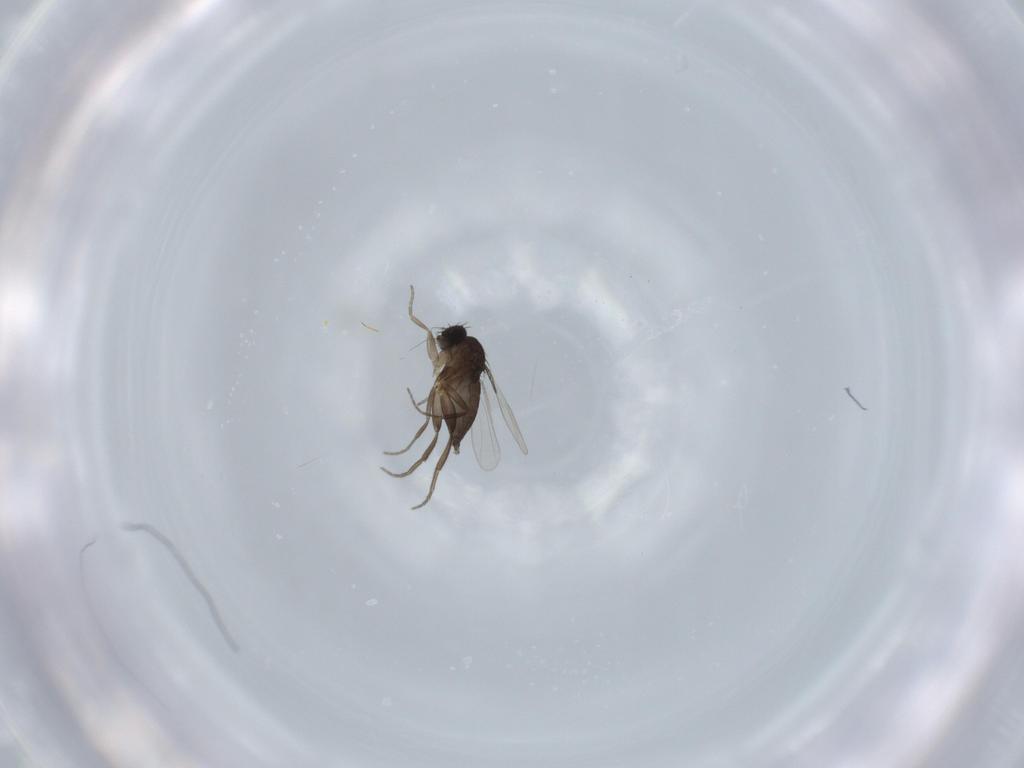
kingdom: Animalia
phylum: Arthropoda
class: Insecta
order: Diptera
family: Phoridae
